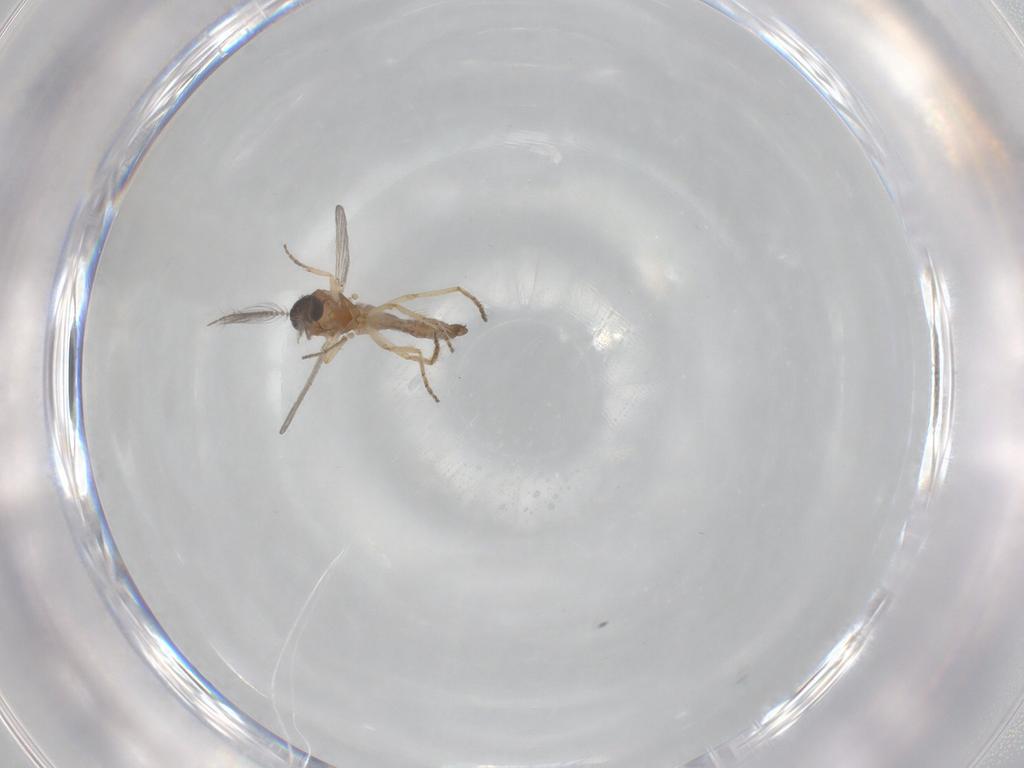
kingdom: Animalia
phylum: Arthropoda
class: Insecta
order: Diptera
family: Ceratopogonidae
